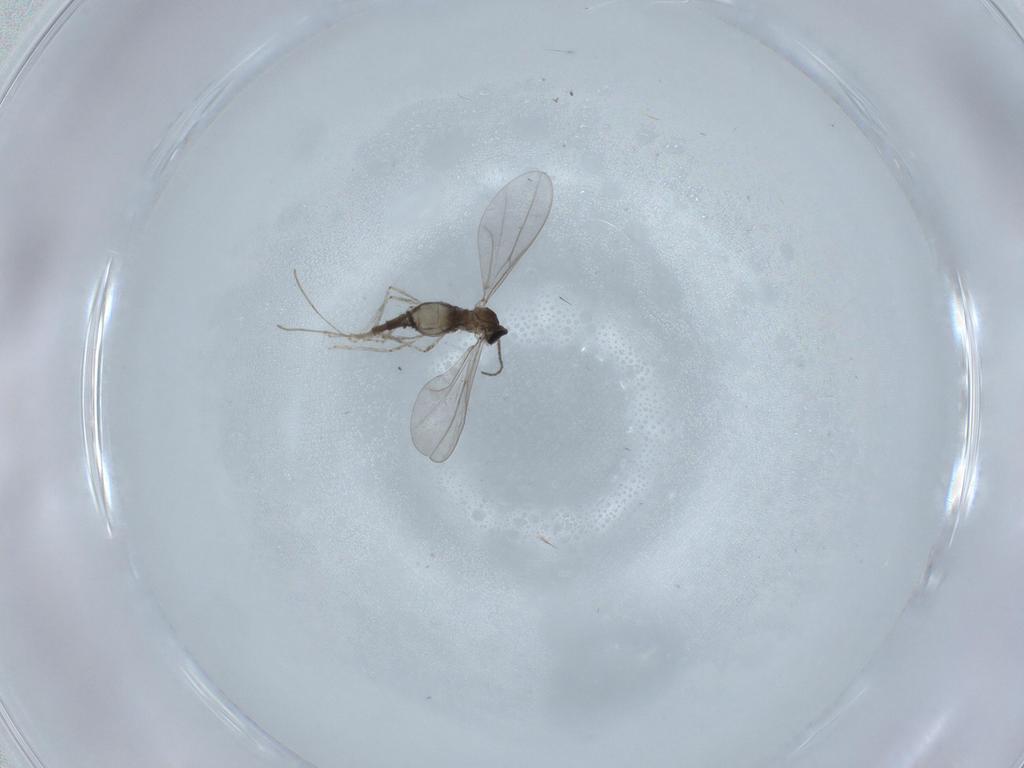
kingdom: Animalia
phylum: Arthropoda
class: Insecta
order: Diptera
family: Cecidomyiidae
